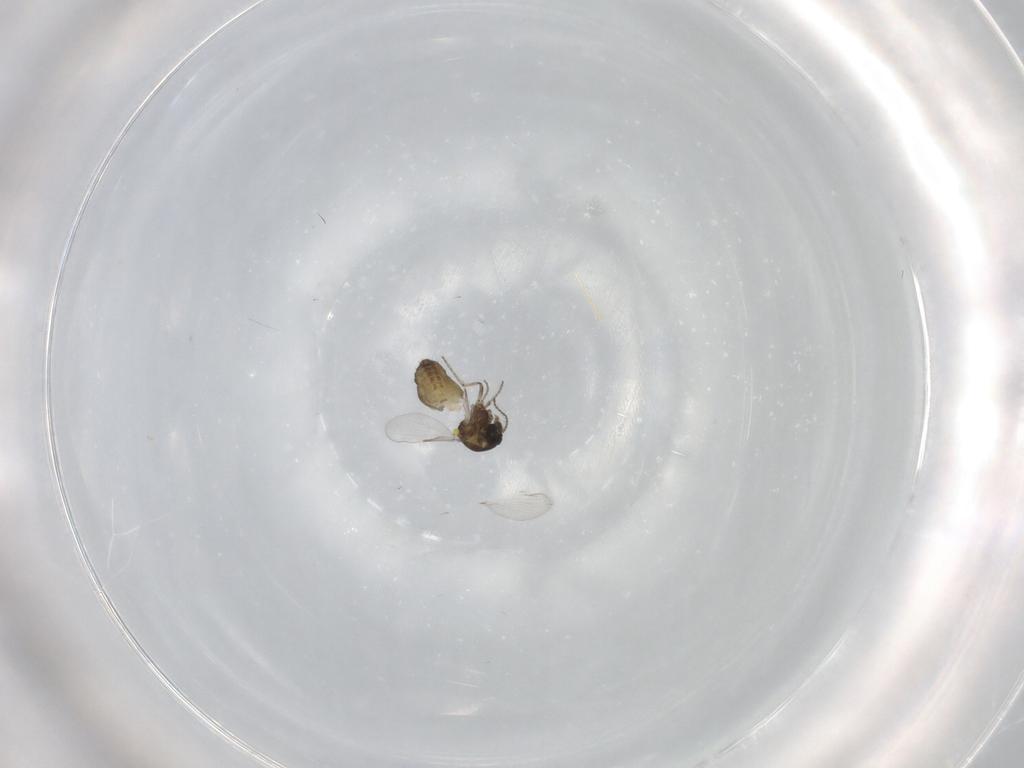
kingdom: Animalia
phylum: Arthropoda
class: Insecta
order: Diptera
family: Ceratopogonidae
